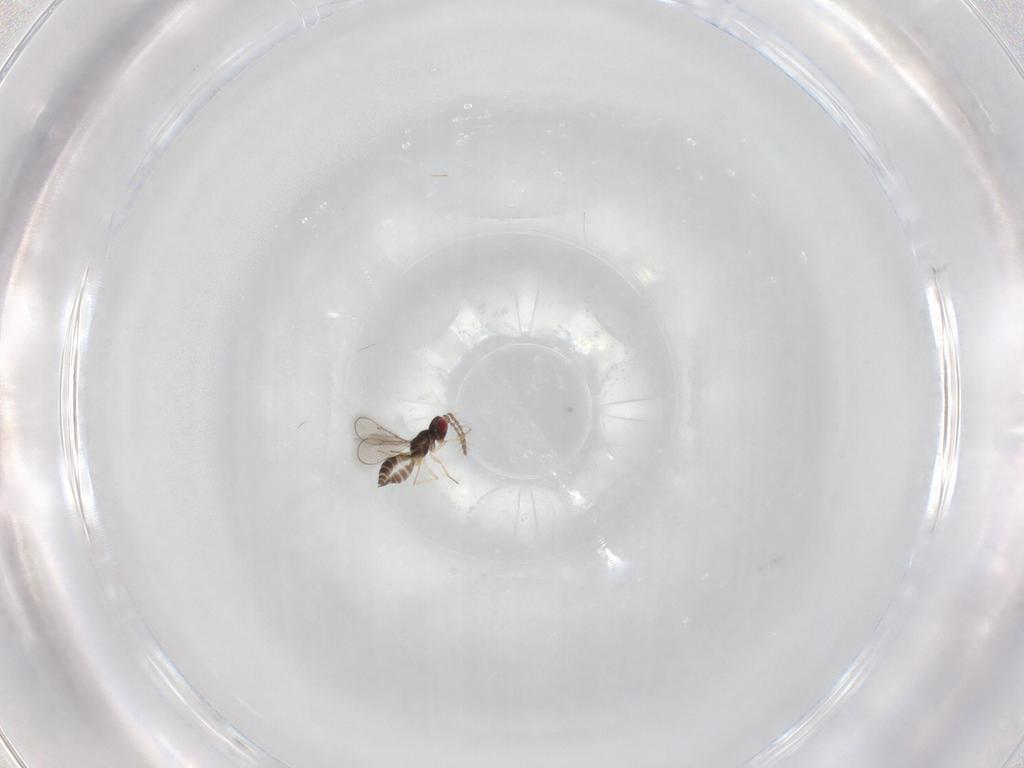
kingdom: Animalia
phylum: Arthropoda
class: Insecta
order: Hymenoptera
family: Eulophidae
